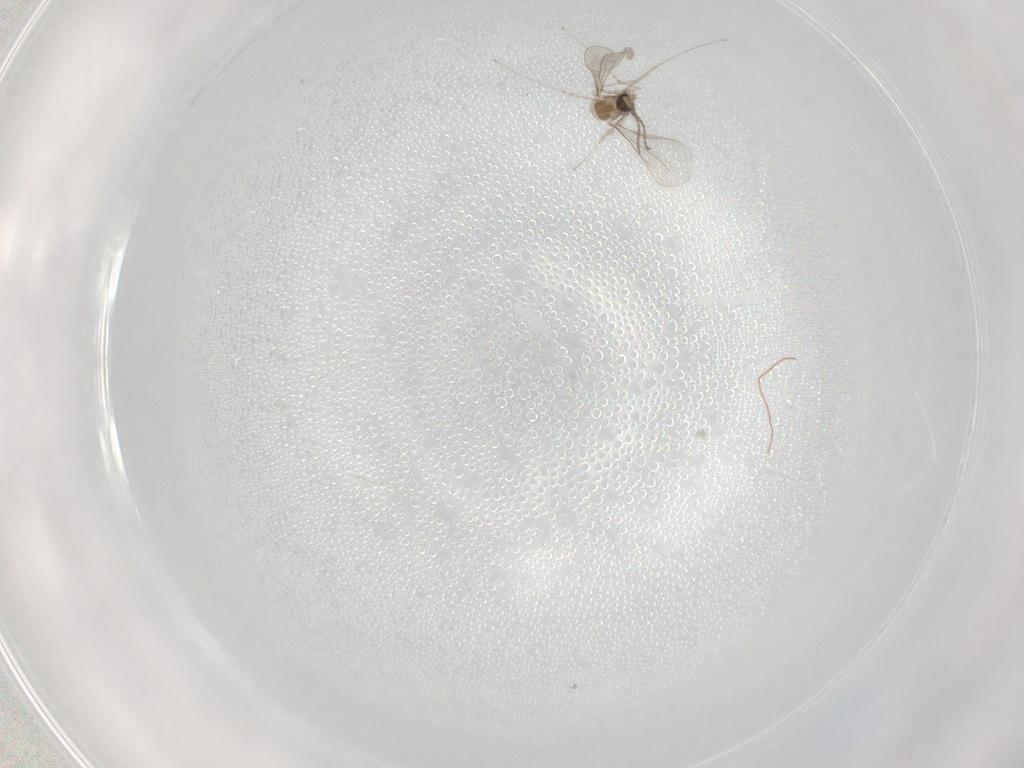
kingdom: Animalia
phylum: Arthropoda
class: Insecta
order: Diptera
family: Cecidomyiidae
